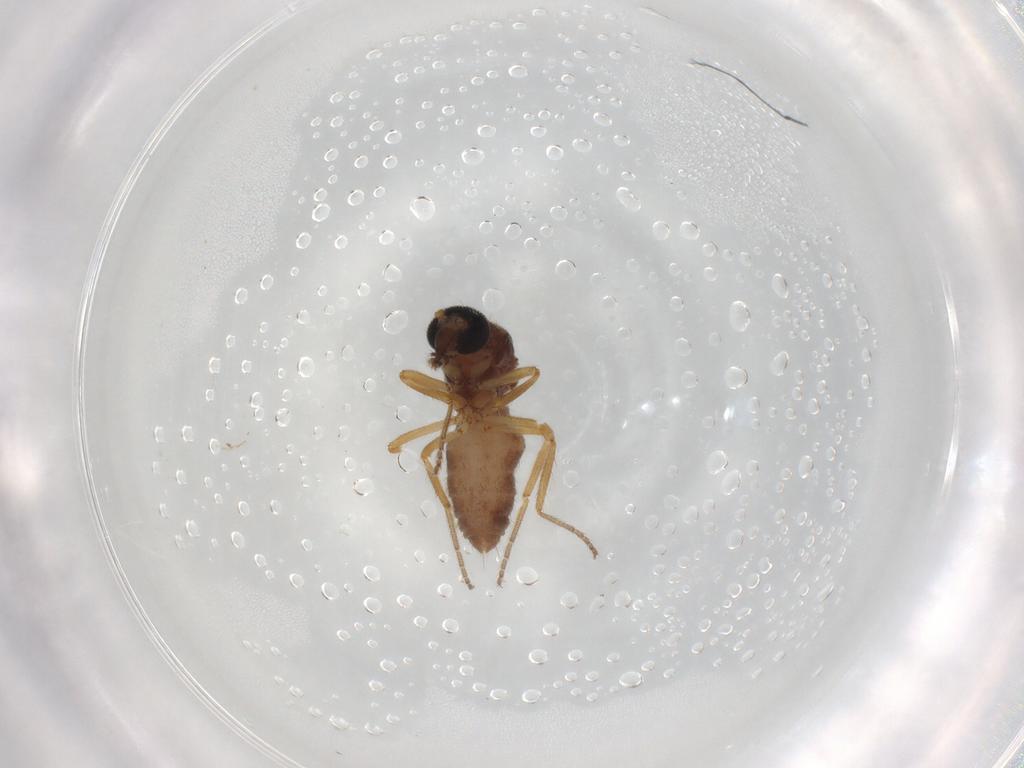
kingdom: Animalia
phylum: Arthropoda
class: Insecta
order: Diptera
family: Ceratopogonidae
